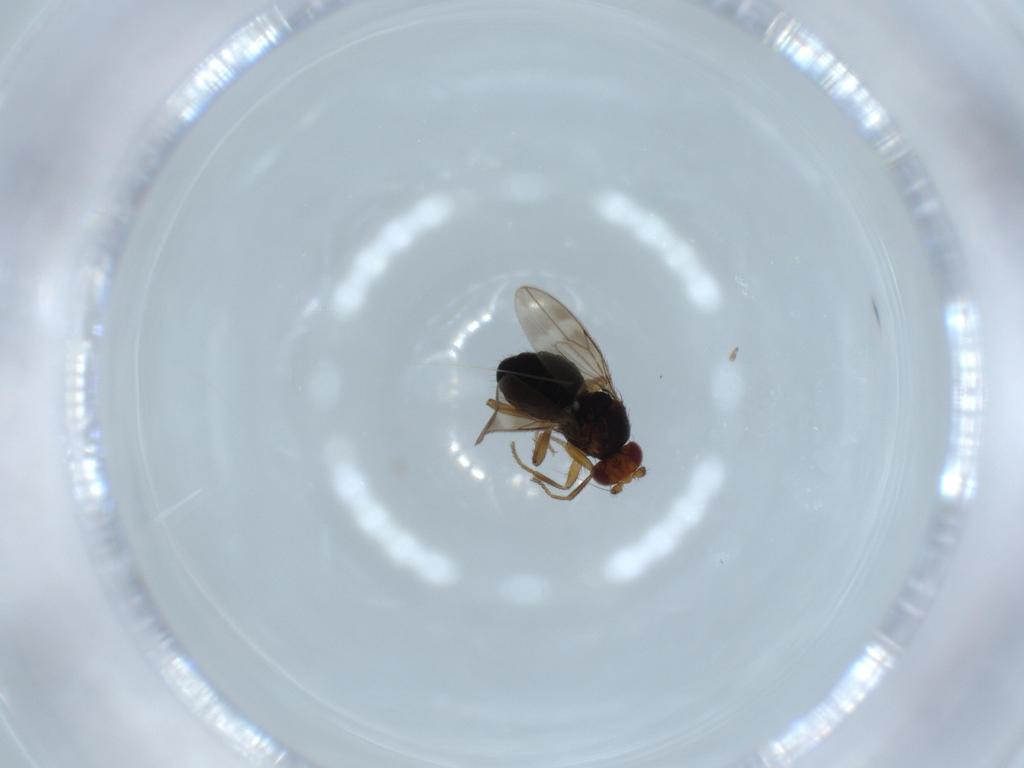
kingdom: Animalia
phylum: Arthropoda
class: Insecta
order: Diptera
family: Sphaeroceridae
